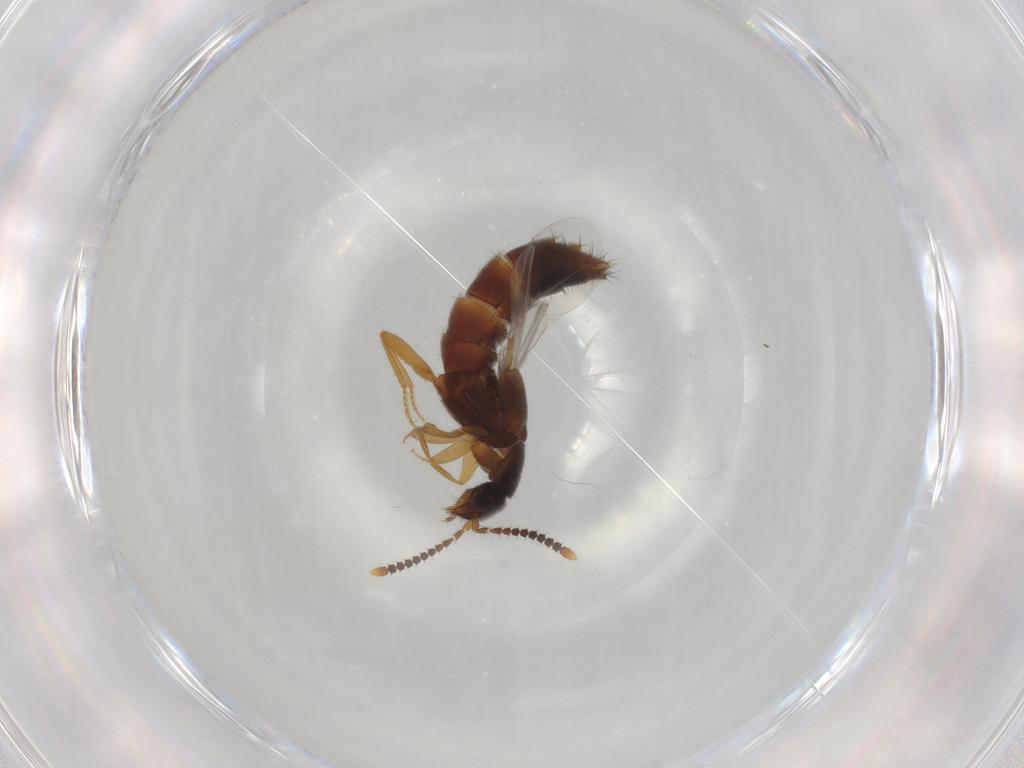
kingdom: Animalia
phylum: Arthropoda
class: Insecta
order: Coleoptera
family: Staphylinidae
